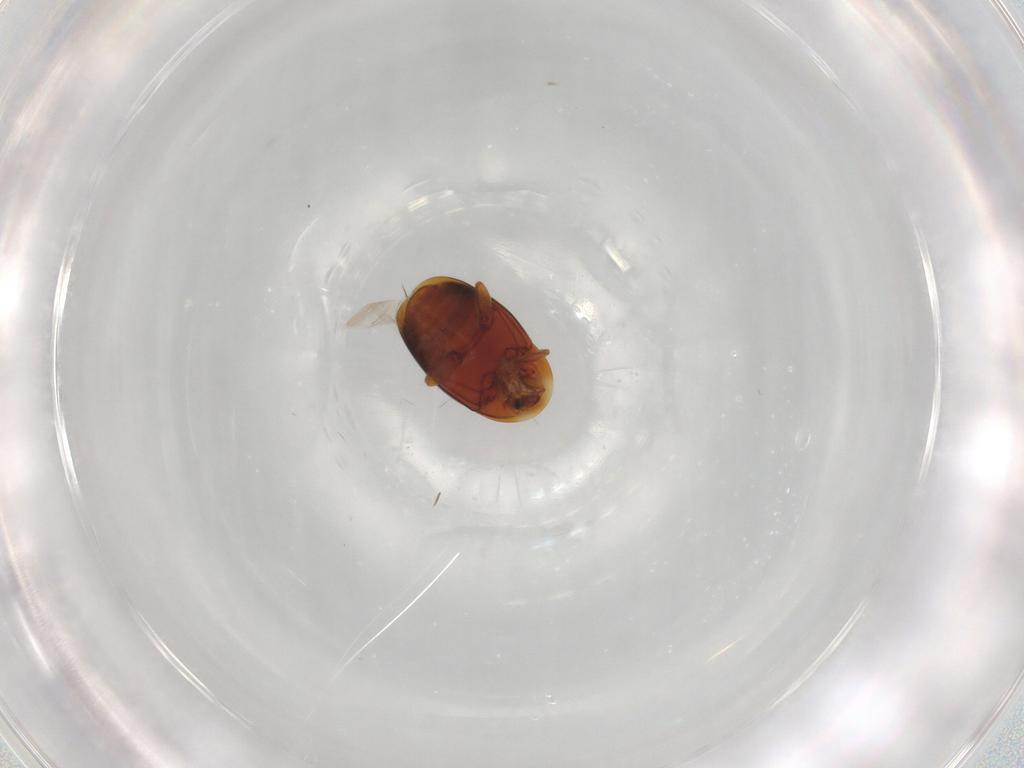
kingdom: Animalia
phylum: Arthropoda
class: Insecta
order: Coleoptera
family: Corylophidae
